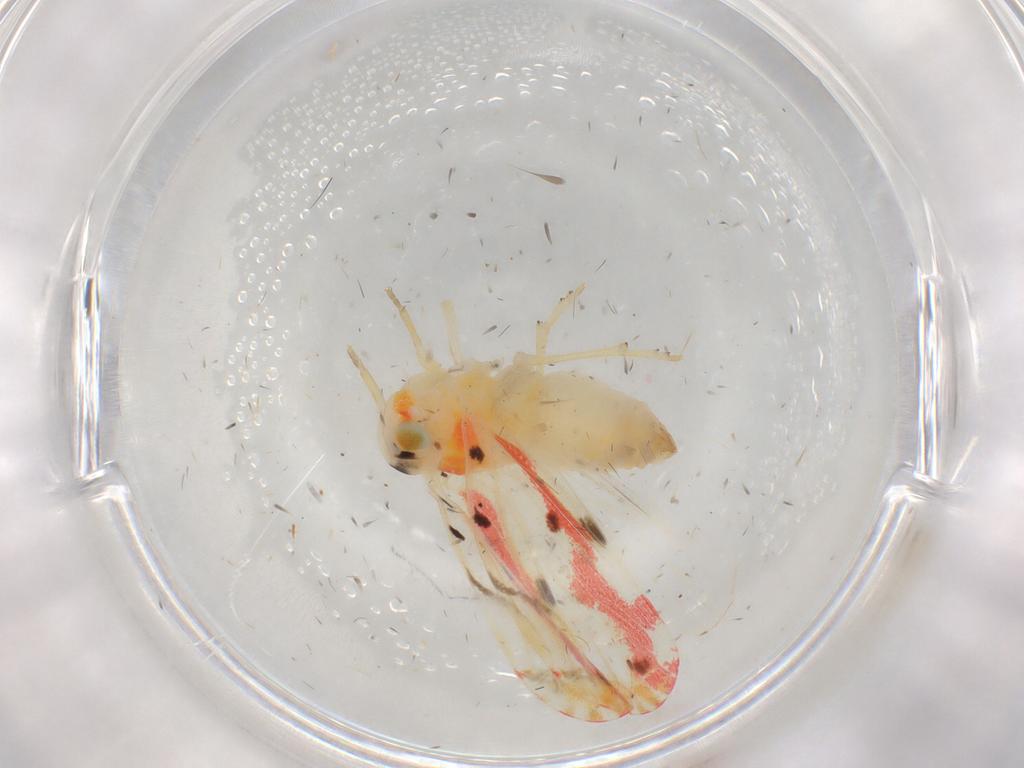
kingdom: Animalia
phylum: Arthropoda
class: Insecta
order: Hemiptera
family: Derbidae
